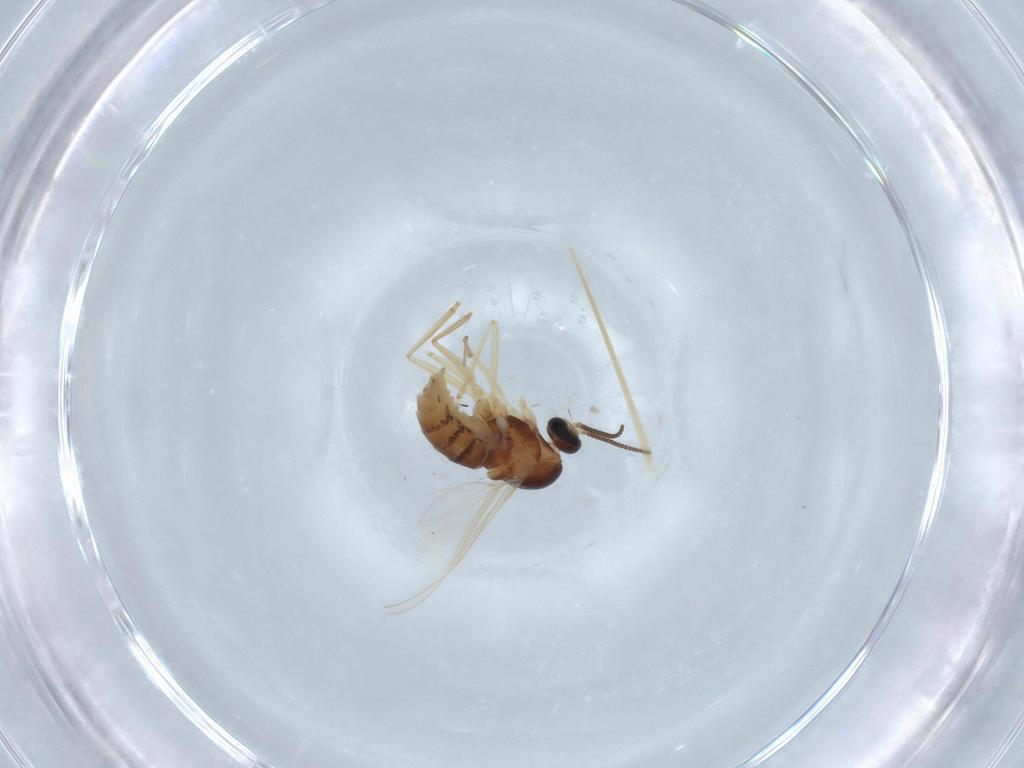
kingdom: Animalia
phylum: Arthropoda
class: Insecta
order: Diptera
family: Cecidomyiidae
